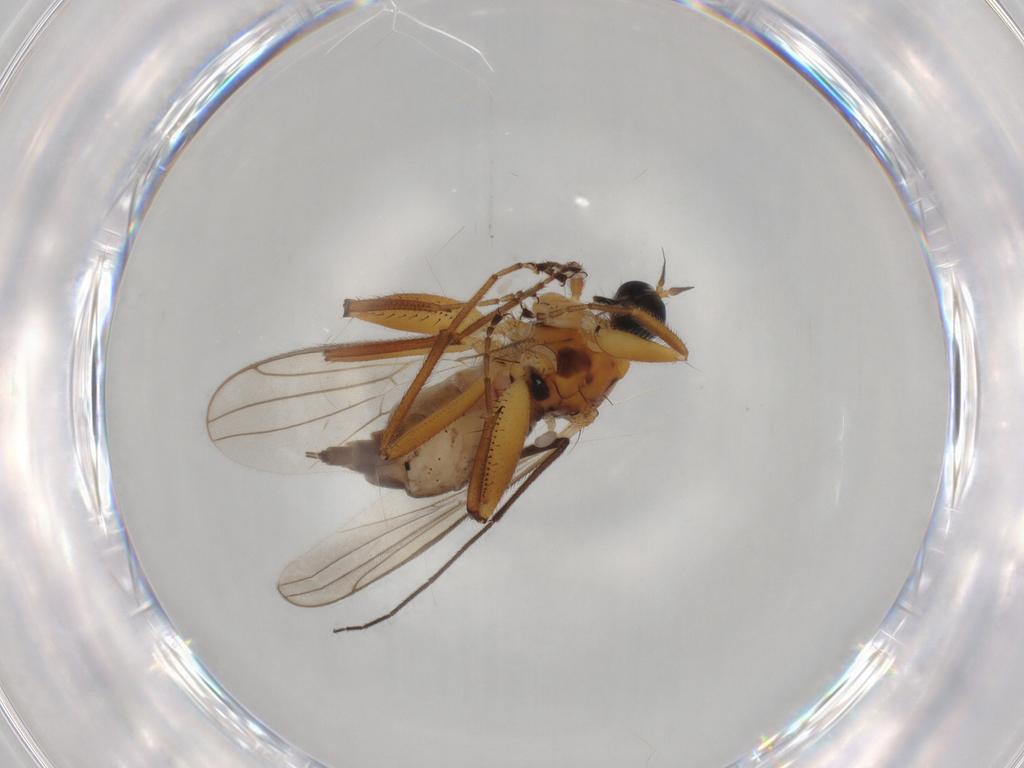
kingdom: Animalia
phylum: Arthropoda
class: Insecta
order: Diptera
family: Hybotidae
